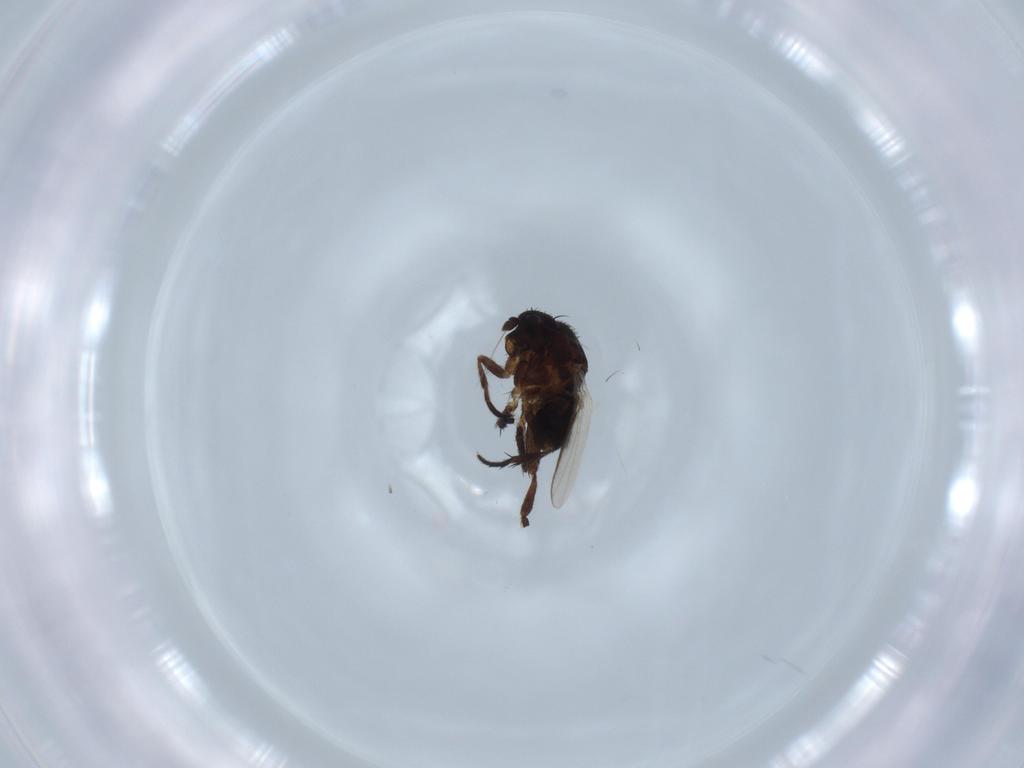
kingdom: Animalia
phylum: Arthropoda
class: Insecta
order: Diptera
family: Sphaeroceridae
